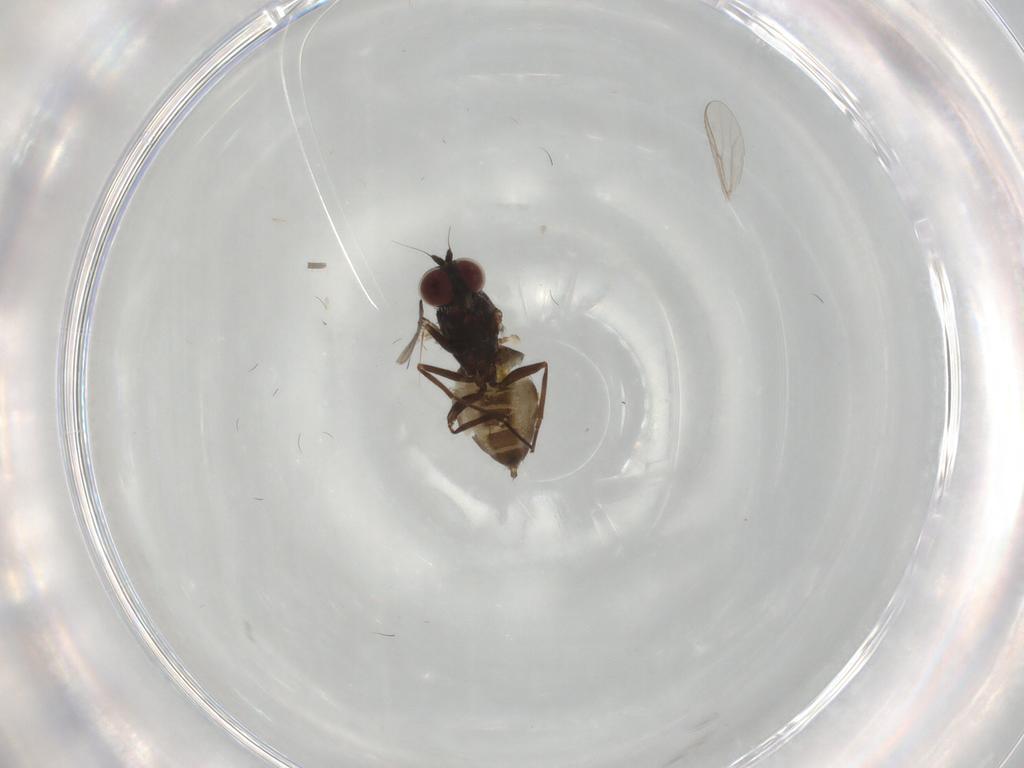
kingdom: Animalia
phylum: Arthropoda
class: Insecta
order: Diptera
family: Dolichopodidae
